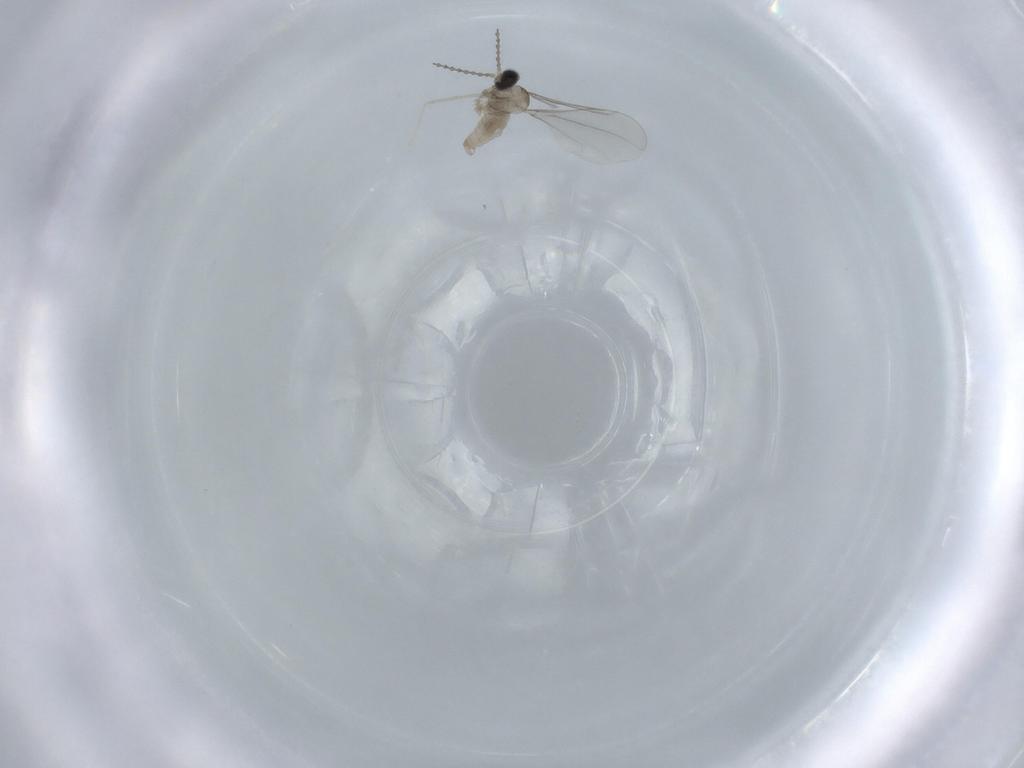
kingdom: Animalia
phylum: Arthropoda
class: Insecta
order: Diptera
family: Cecidomyiidae
